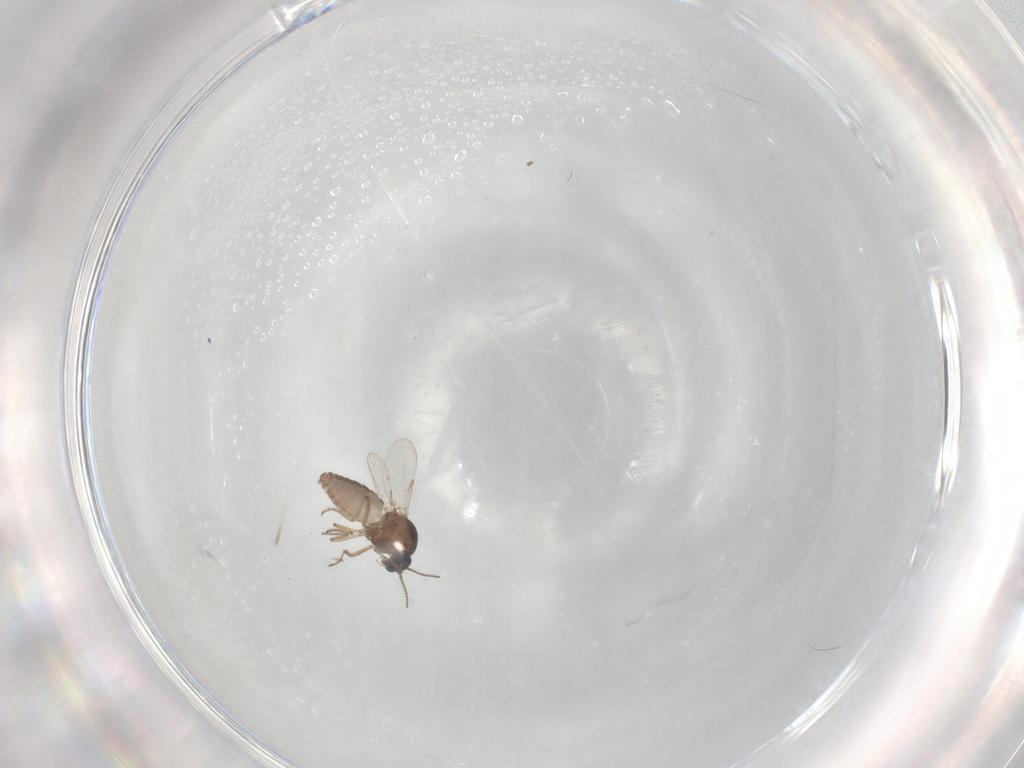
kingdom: Animalia
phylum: Arthropoda
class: Insecta
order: Diptera
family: Ceratopogonidae
